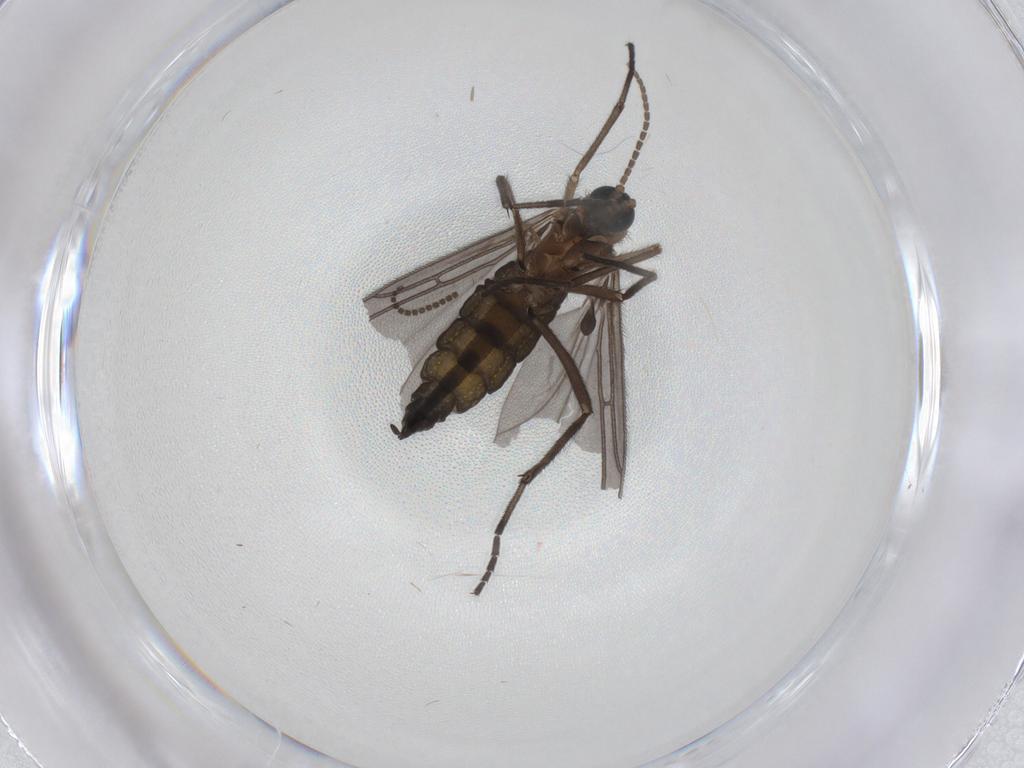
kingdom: Animalia
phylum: Arthropoda
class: Insecta
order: Diptera
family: Sciaridae
